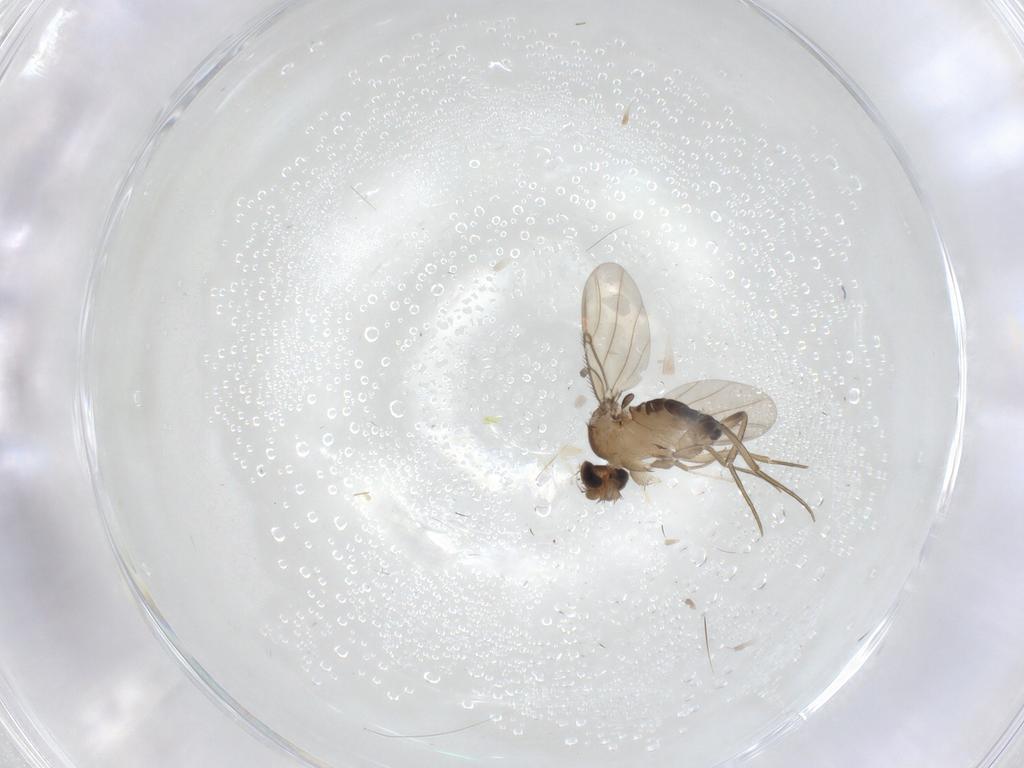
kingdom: Animalia
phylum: Arthropoda
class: Insecta
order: Diptera
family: Phoridae
